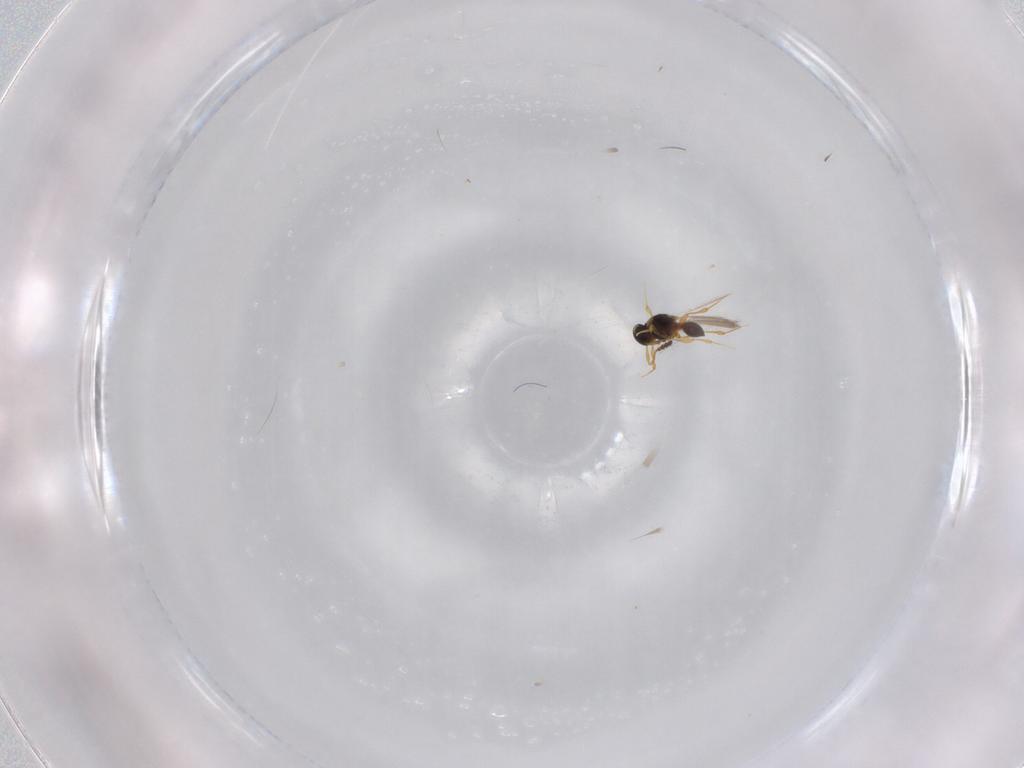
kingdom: Animalia
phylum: Arthropoda
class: Insecta
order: Hymenoptera
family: Platygastridae
